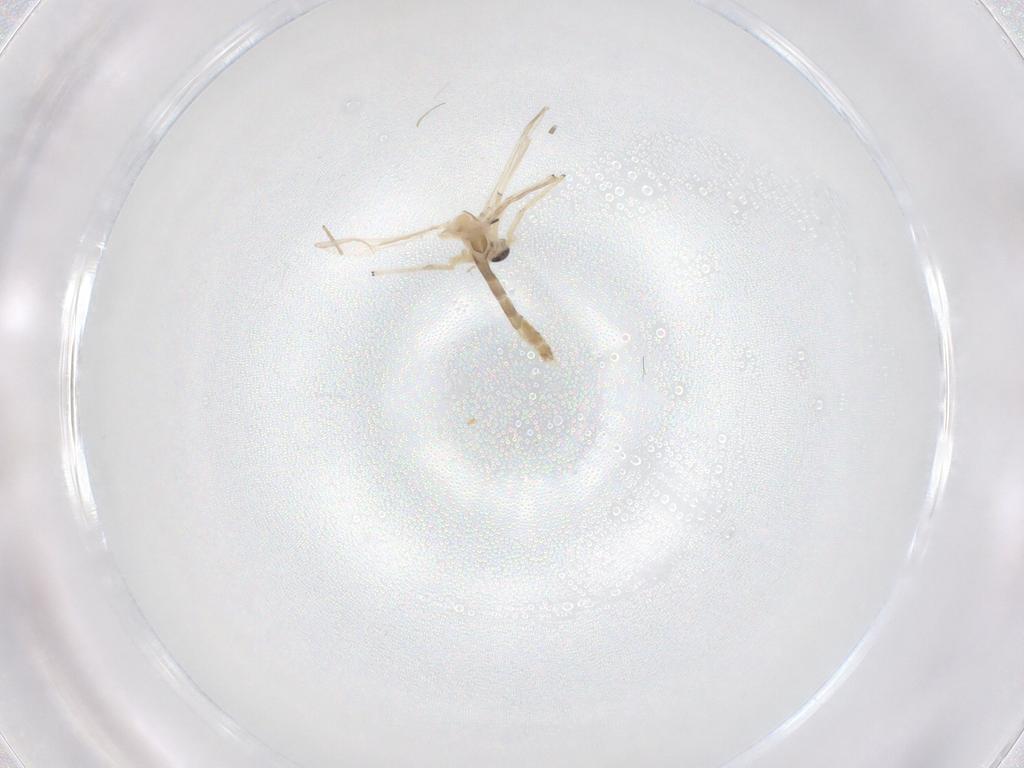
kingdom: Animalia
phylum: Arthropoda
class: Insecta
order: Diptera
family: Chironomidae
